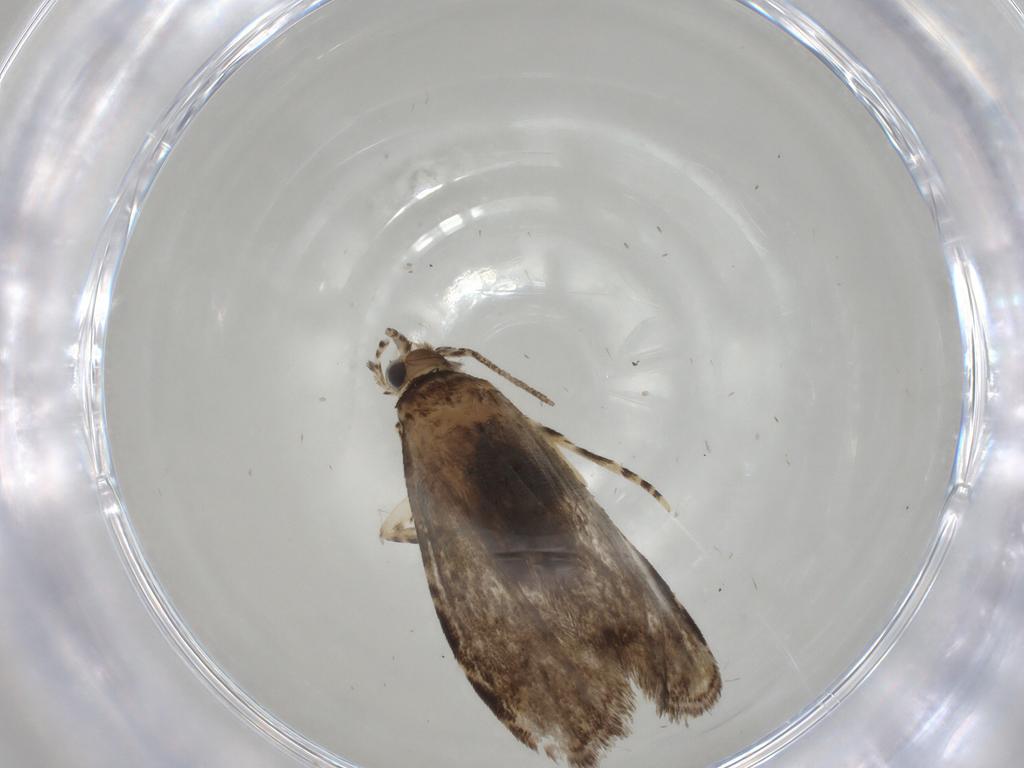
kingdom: Animalia
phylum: Arthropoda
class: Insecta
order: Lepidoptera
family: Tineidae
